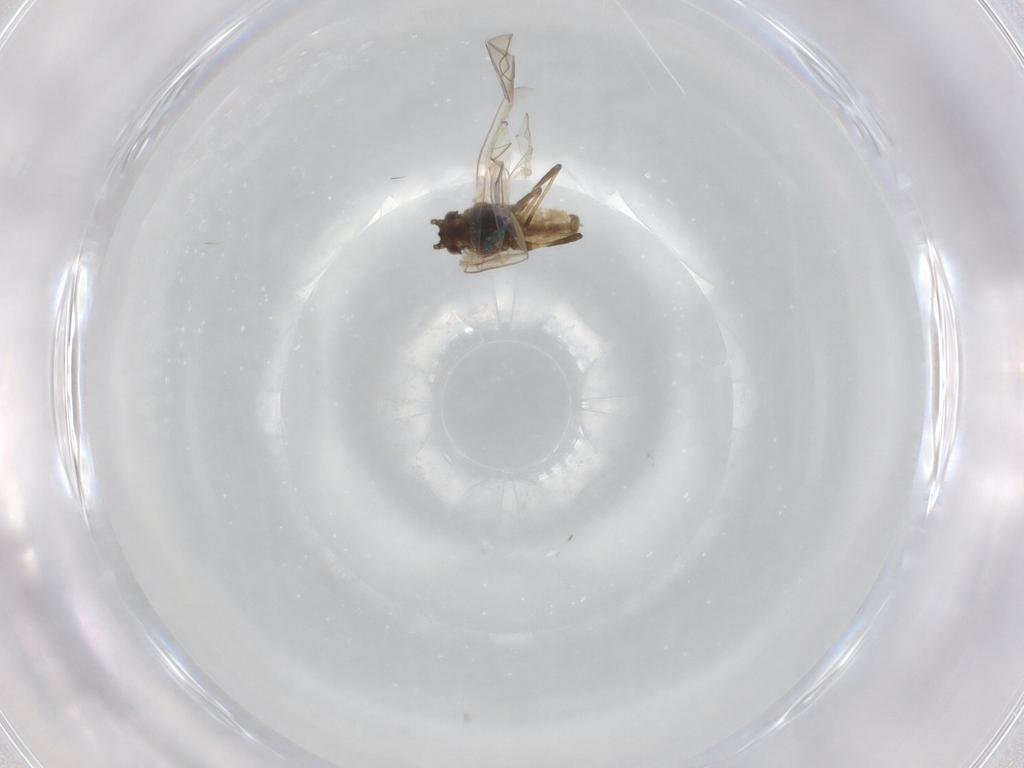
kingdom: Animalia
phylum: Arthropoda
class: Insecta
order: Hemiptera
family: Aphididae
